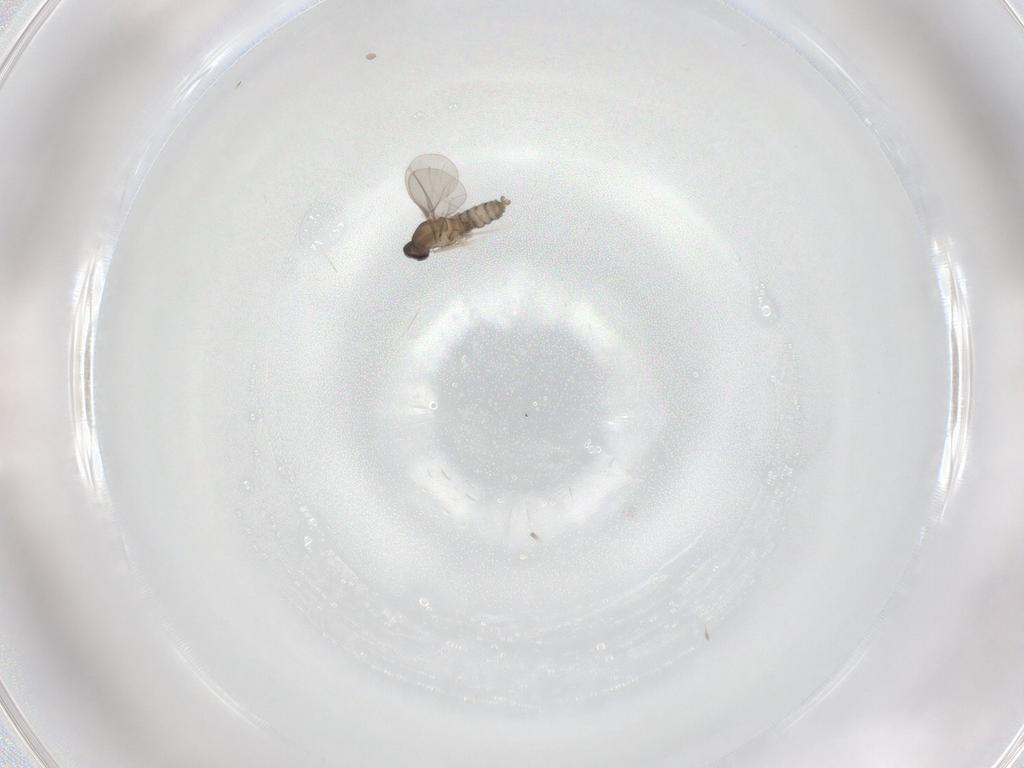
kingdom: Animalia
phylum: Arthropoda
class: Insecta
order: Diptera
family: Cecidomyiidae
